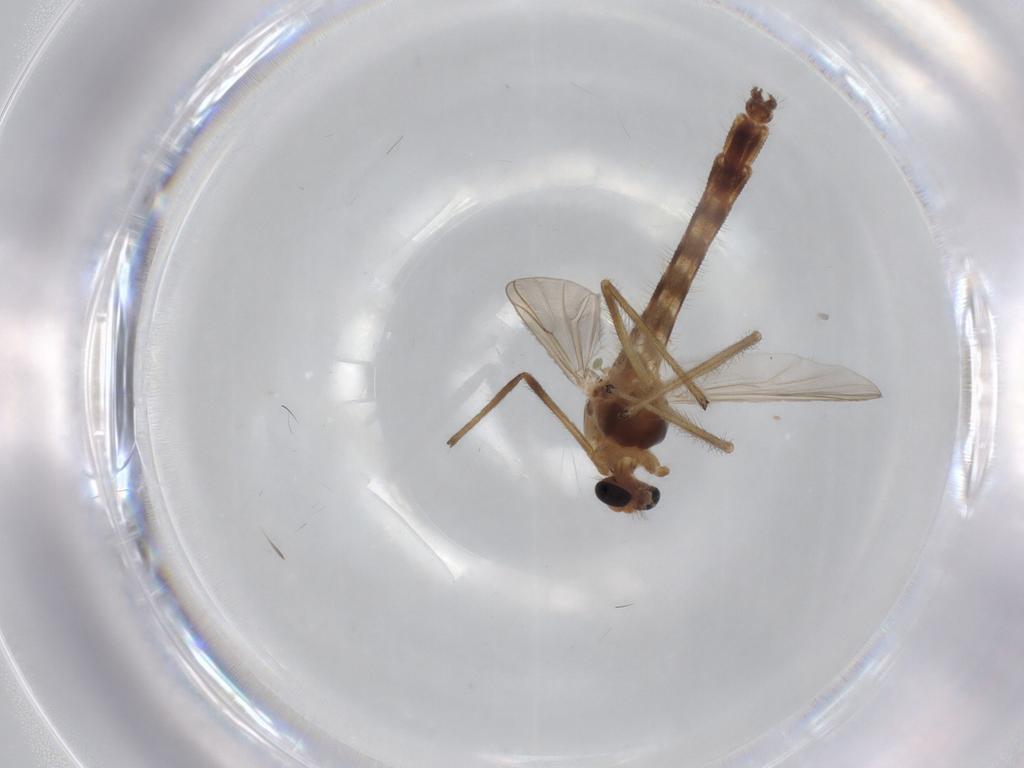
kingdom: Animalia
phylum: Arthropoda
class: Insecta
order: Diptera
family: Chironomidae
